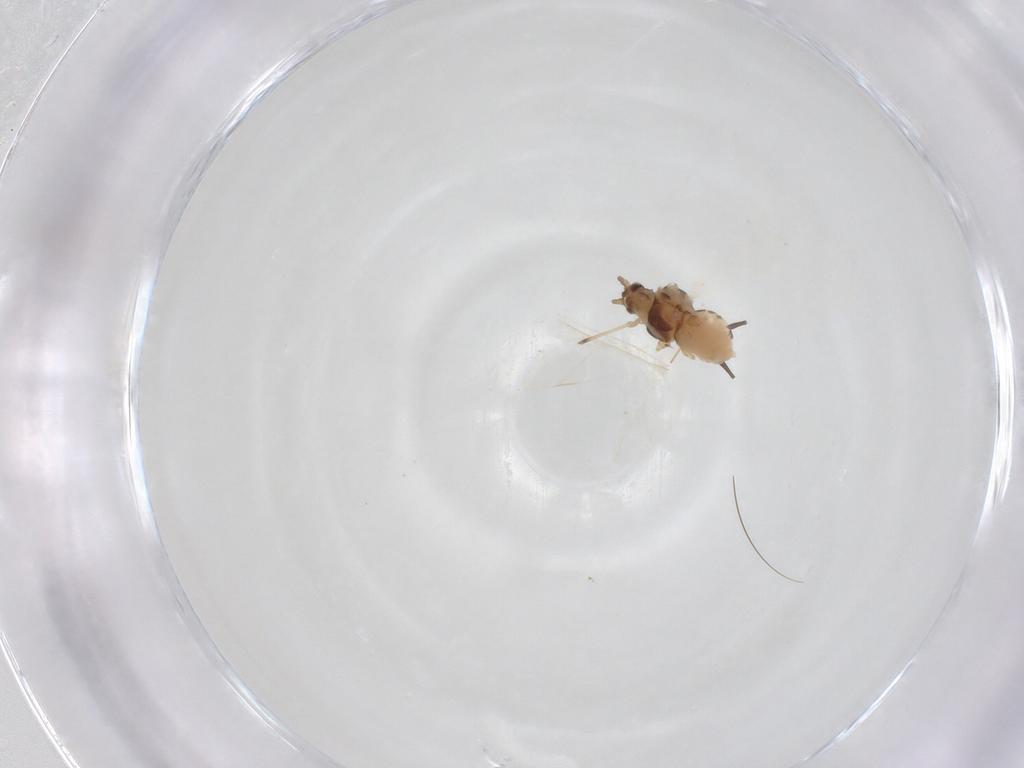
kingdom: Animalia
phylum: Arthropoda
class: Insecta
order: Hemiptera
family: Aphididae
